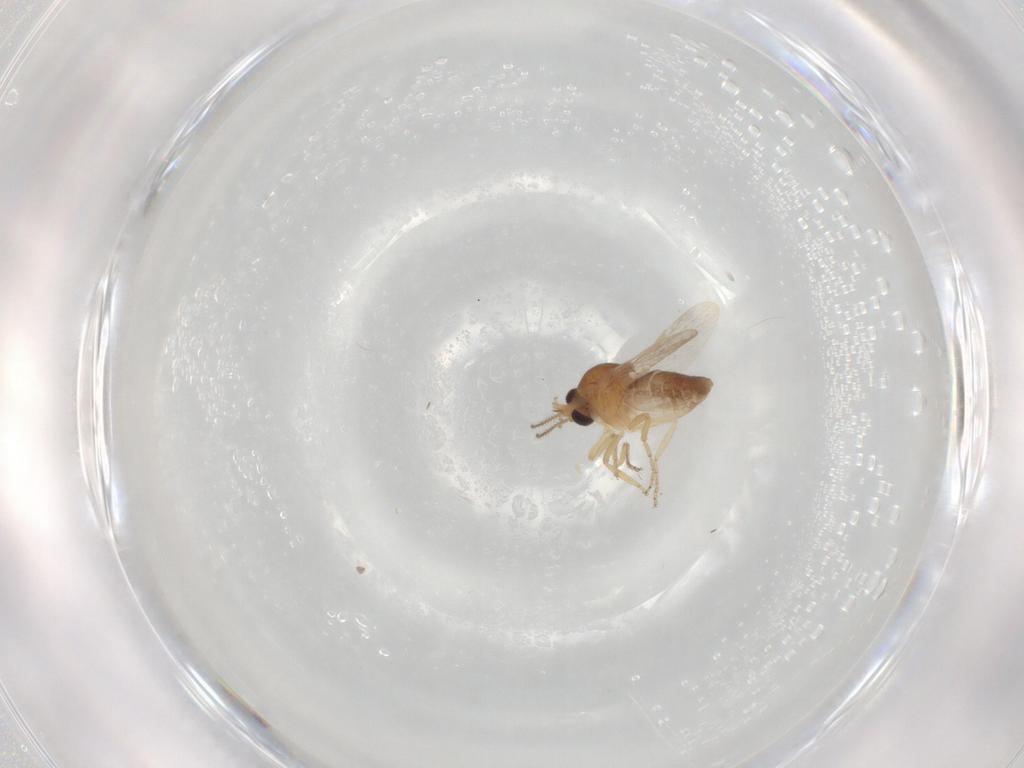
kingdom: Animalia
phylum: Arthropoda
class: Insecta
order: Diptera
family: Ceratopogonidae
